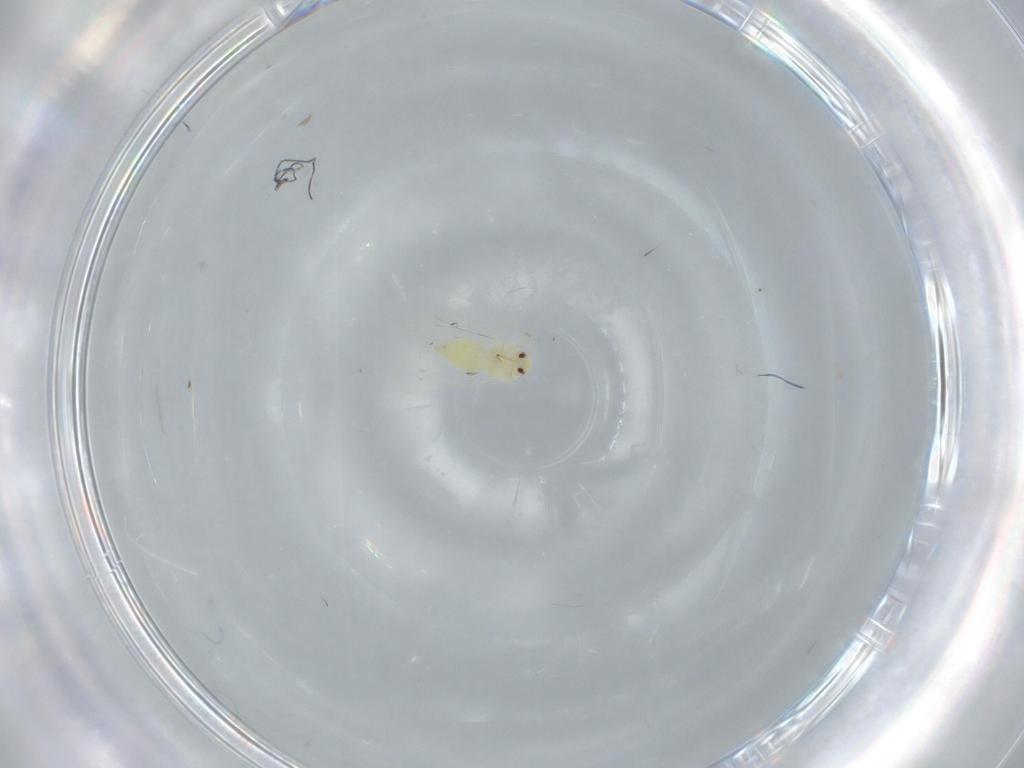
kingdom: Animalia
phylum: Arthropoda
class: Insecta
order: Hemiptera
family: Aleyrodidae
